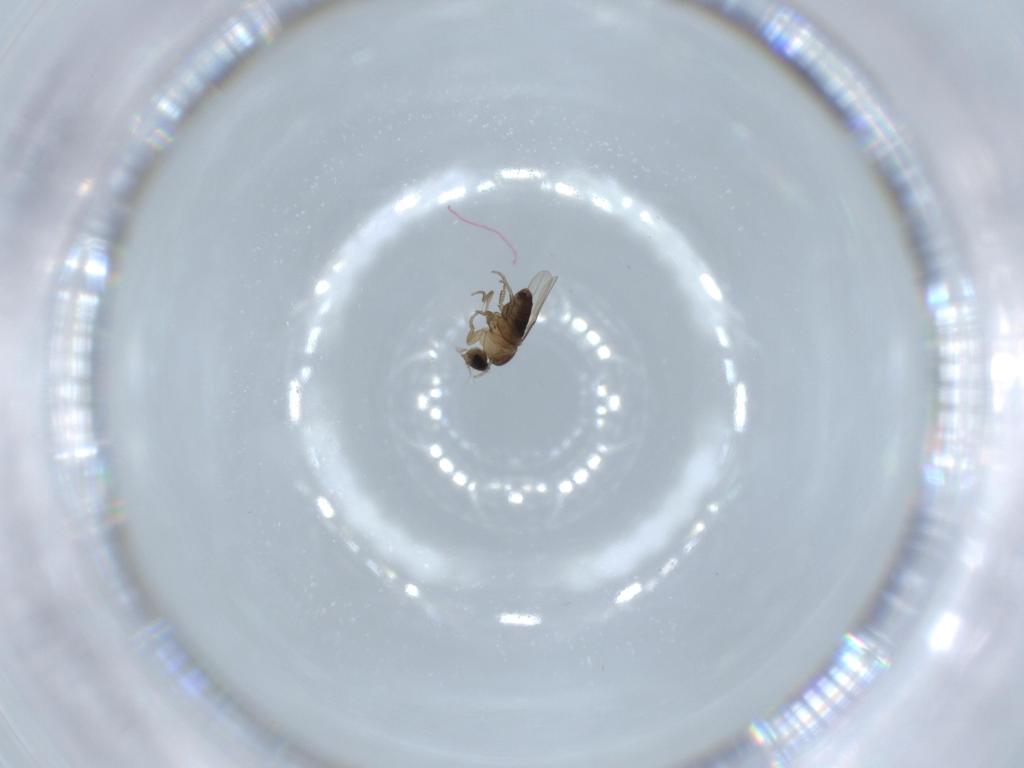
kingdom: Animalia
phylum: Arthropoda
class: Insecta
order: Diptera
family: Phoridae
